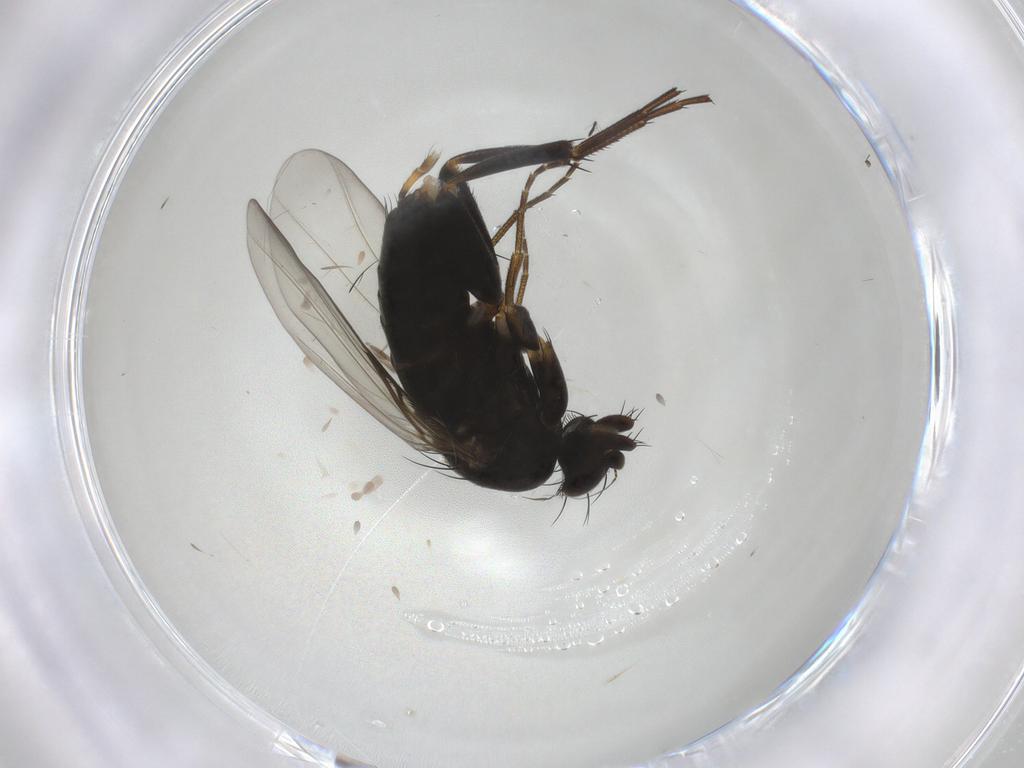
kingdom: Animalia
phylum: Arthropoda
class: Insecta
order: Diptera
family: Phoridae
